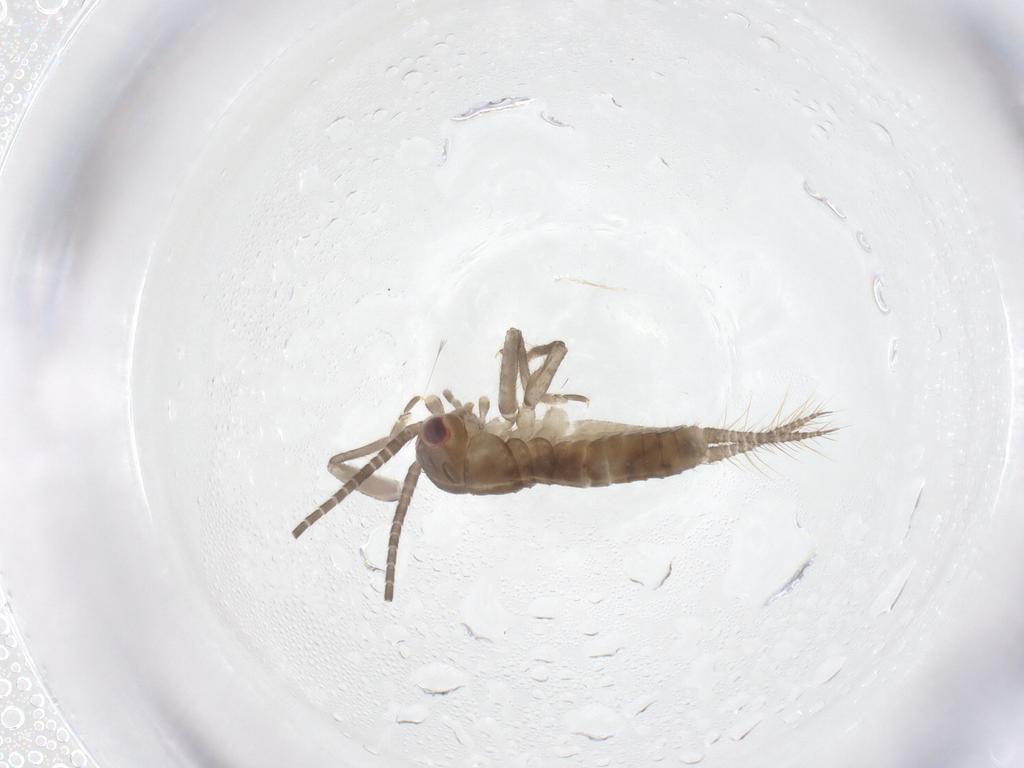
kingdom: Animalia
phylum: Arthropoda
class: Insecta
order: Orthoptera
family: Gryllidae
